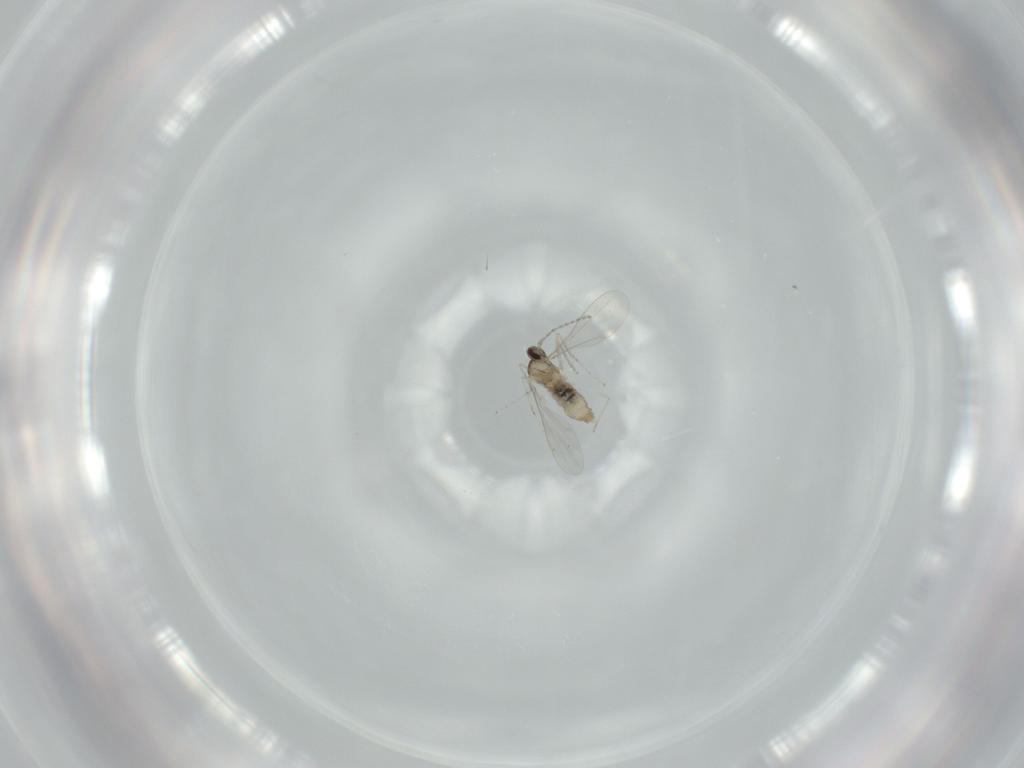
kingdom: Animalia
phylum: Arthropoda
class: Insecta
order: Diptera
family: Cecidomyiidae
